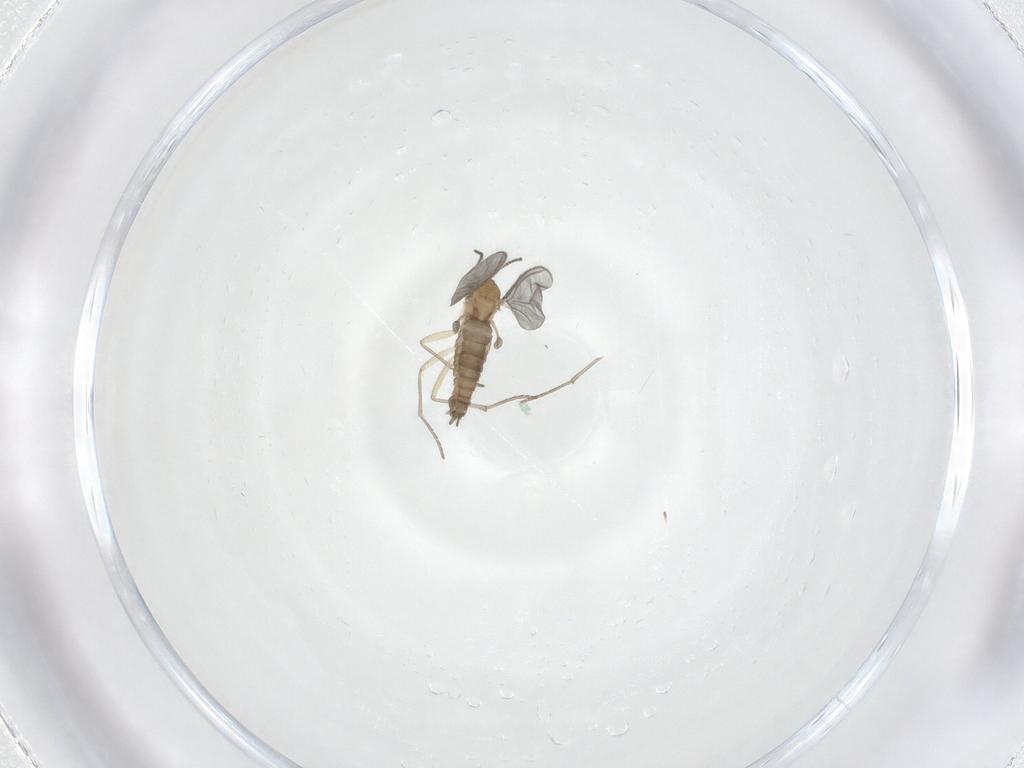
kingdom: Animalia
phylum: Arthropoda
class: Insecta
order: Diptera
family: Sciaridae
